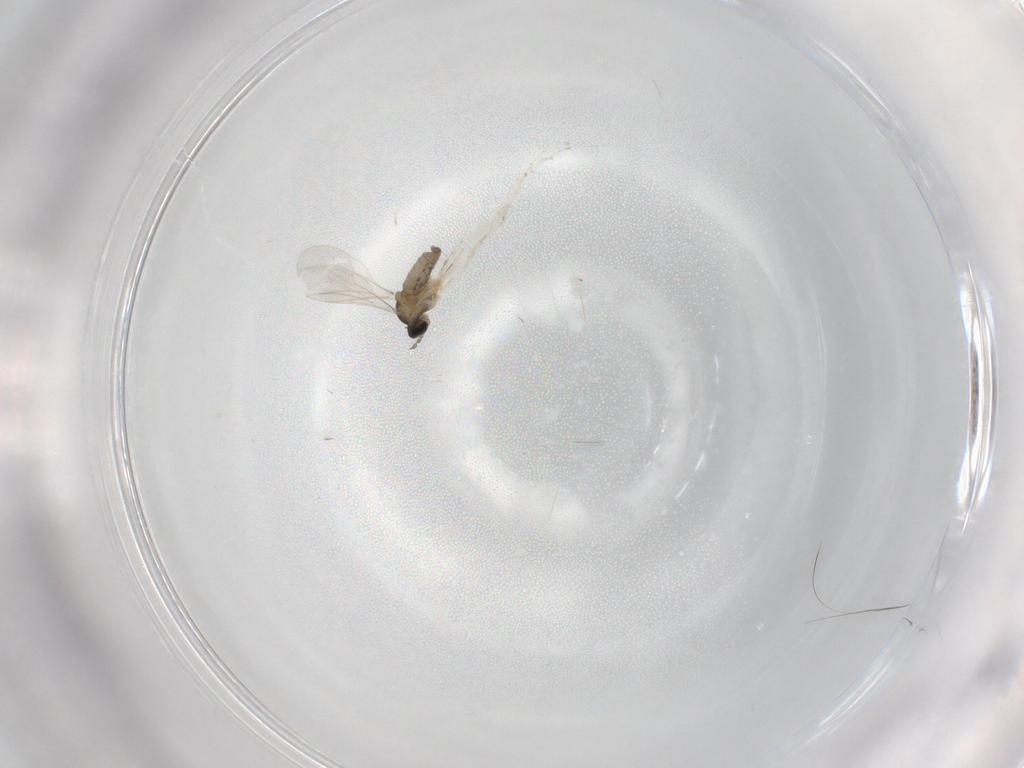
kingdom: Animalia
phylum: Arthropoda
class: Insecta
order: Diptera
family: Cecidomyiidae
